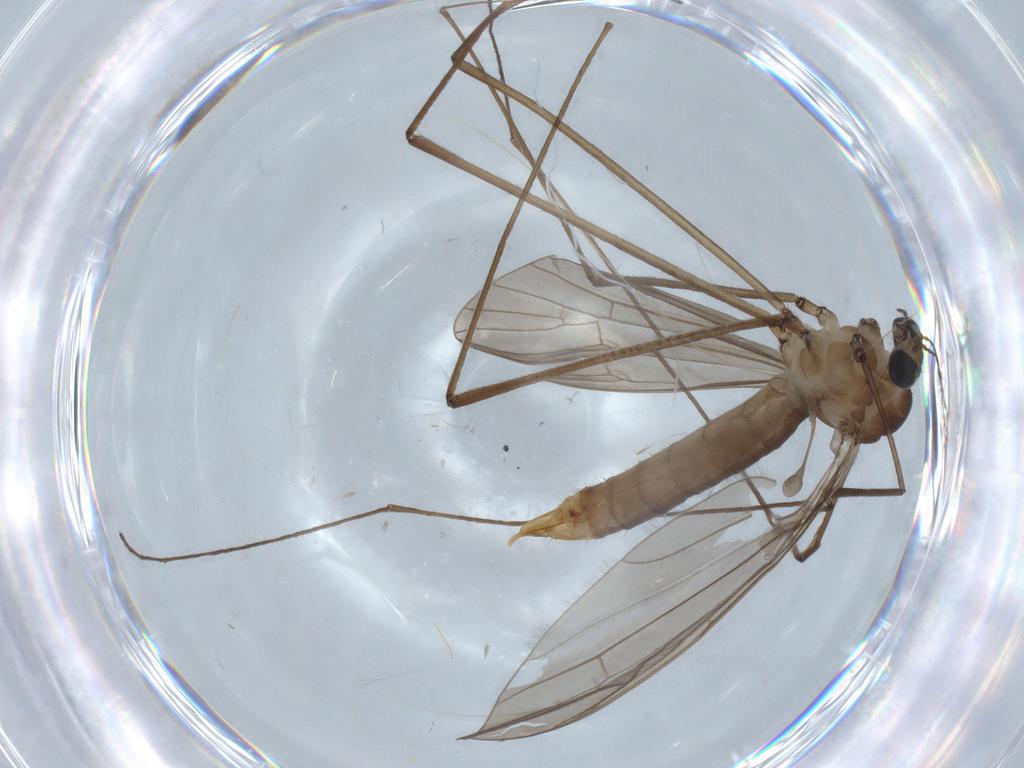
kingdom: Animalia
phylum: Arthropoda
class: Insecta
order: Diptera
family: Cecidomyiidae
